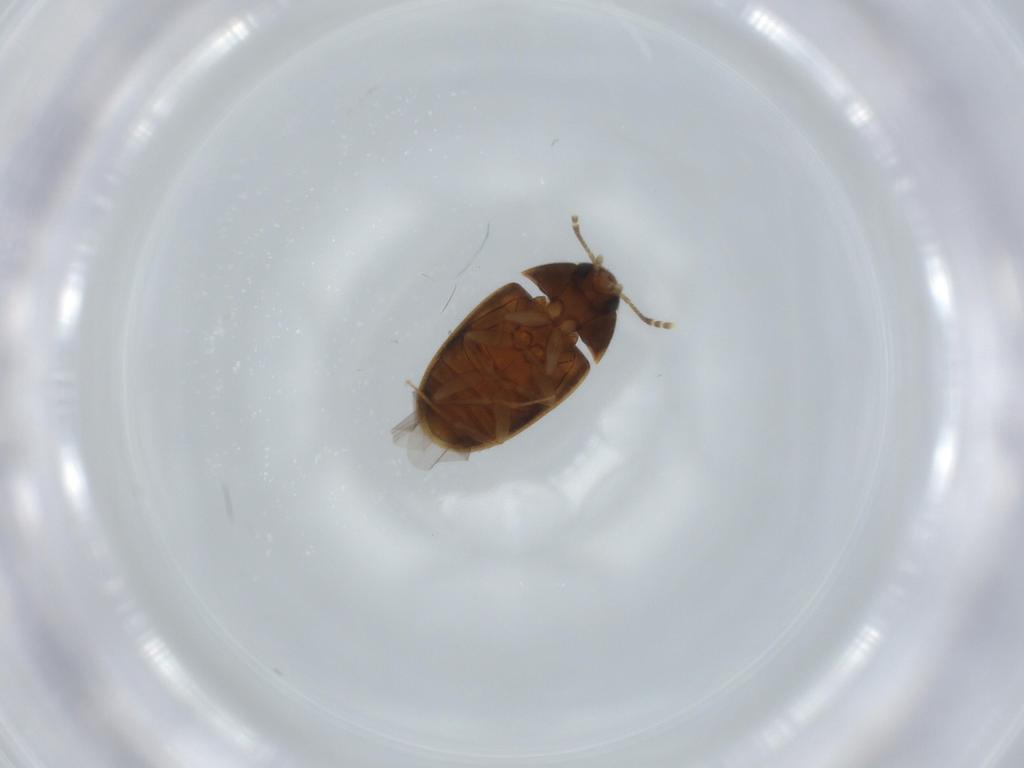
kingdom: Animalia
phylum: Arthropoda
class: Insecta
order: Coleoptera
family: Mycetophagidae
